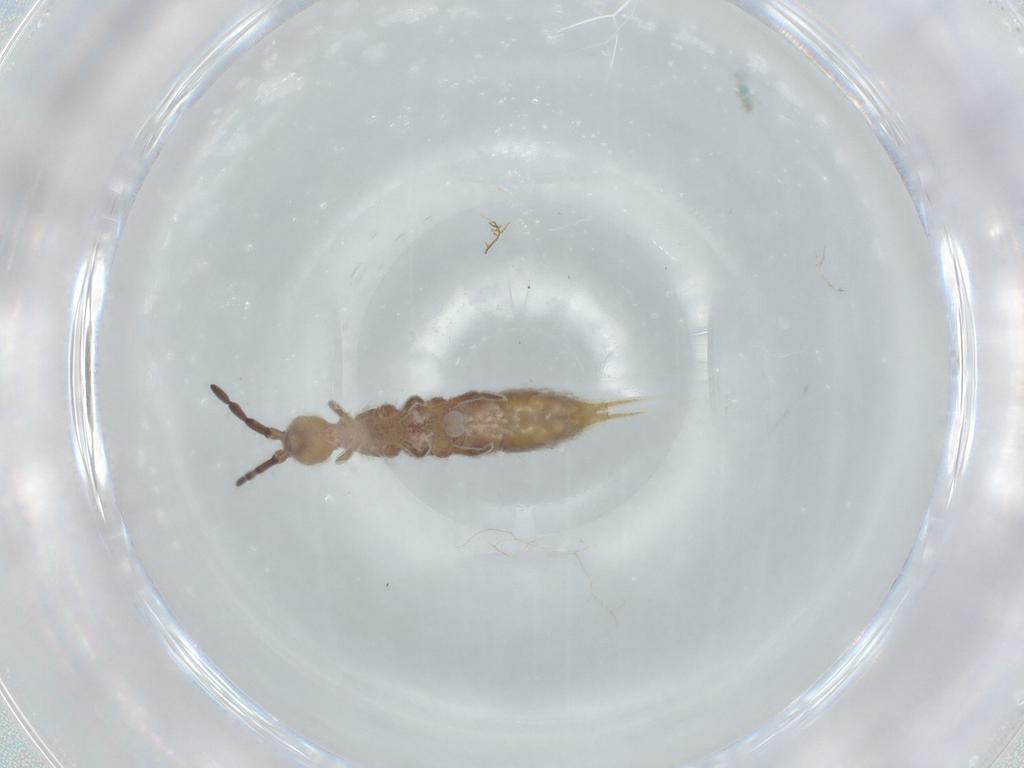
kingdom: Animalia
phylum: Arthropoda
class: Collembola
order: Entomobryomorpha
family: Isotomidae
